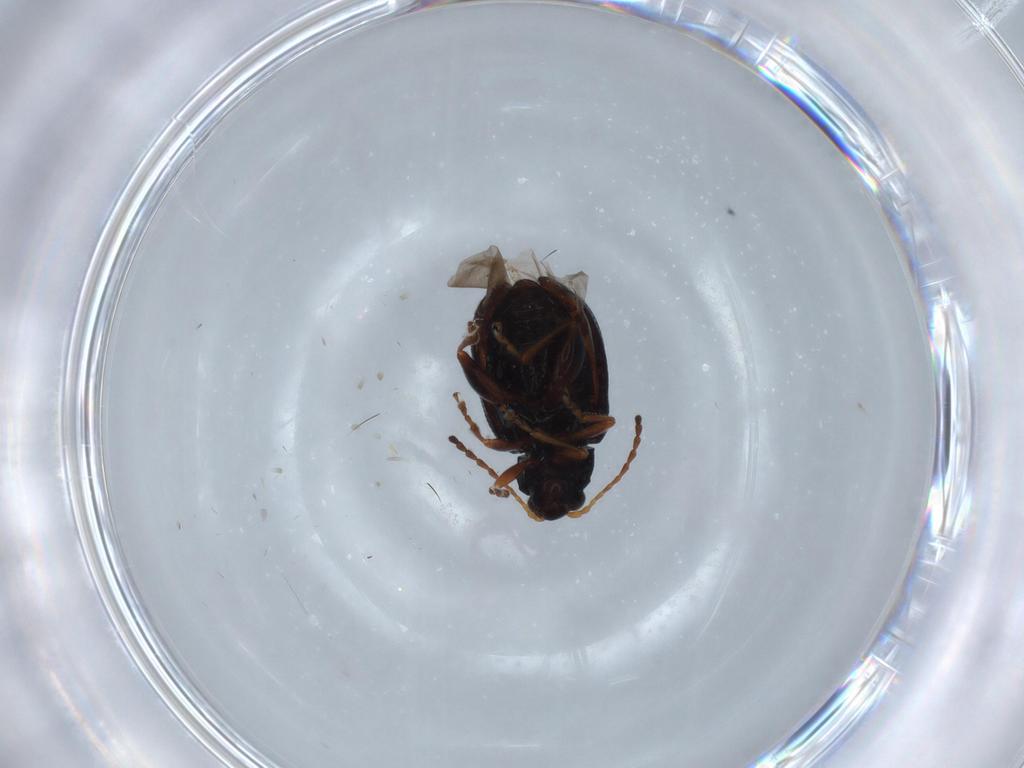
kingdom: Animalia
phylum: Arthropoda
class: Insecta
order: Coleoptera
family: Chrysomelidae
